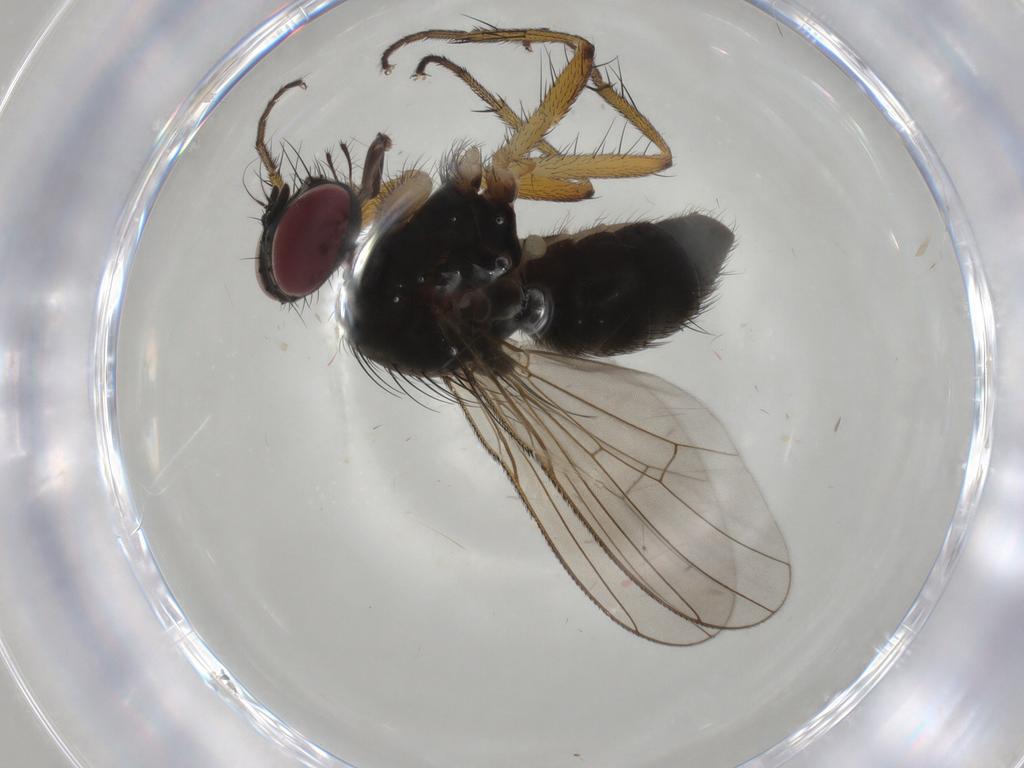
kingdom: Animalia
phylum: Arthropoda
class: Insecta
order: Diptera
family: Muscidae
